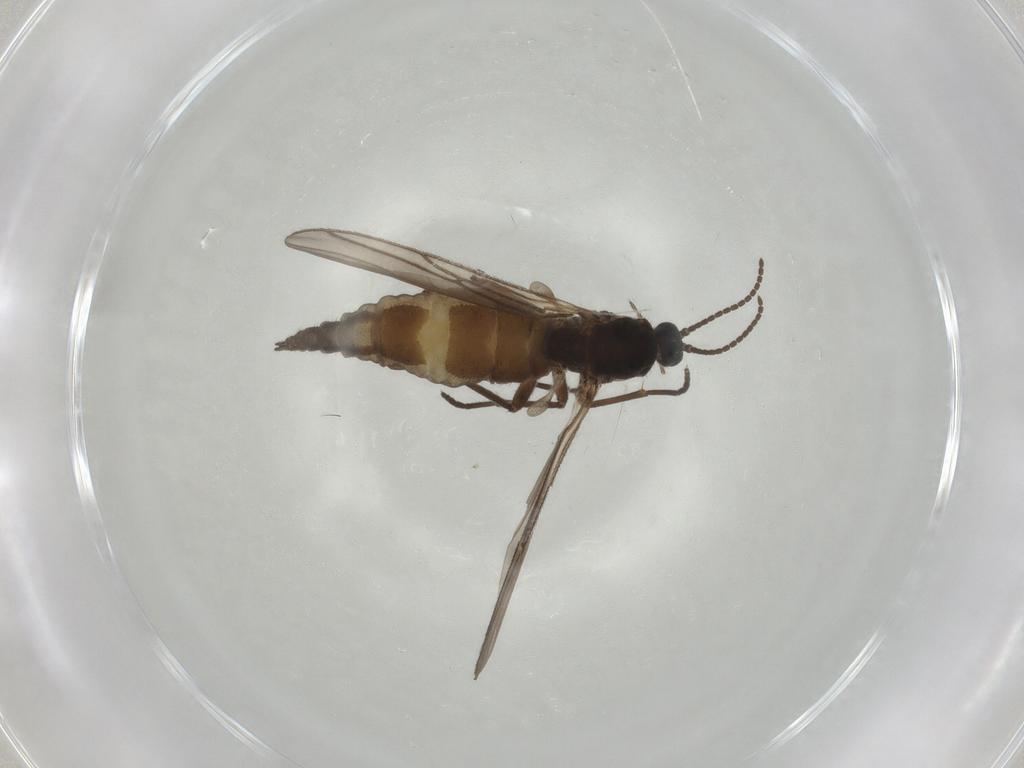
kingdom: Animalia
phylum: Arthropoda
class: Insecta
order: Diptera
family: Sciaridae
